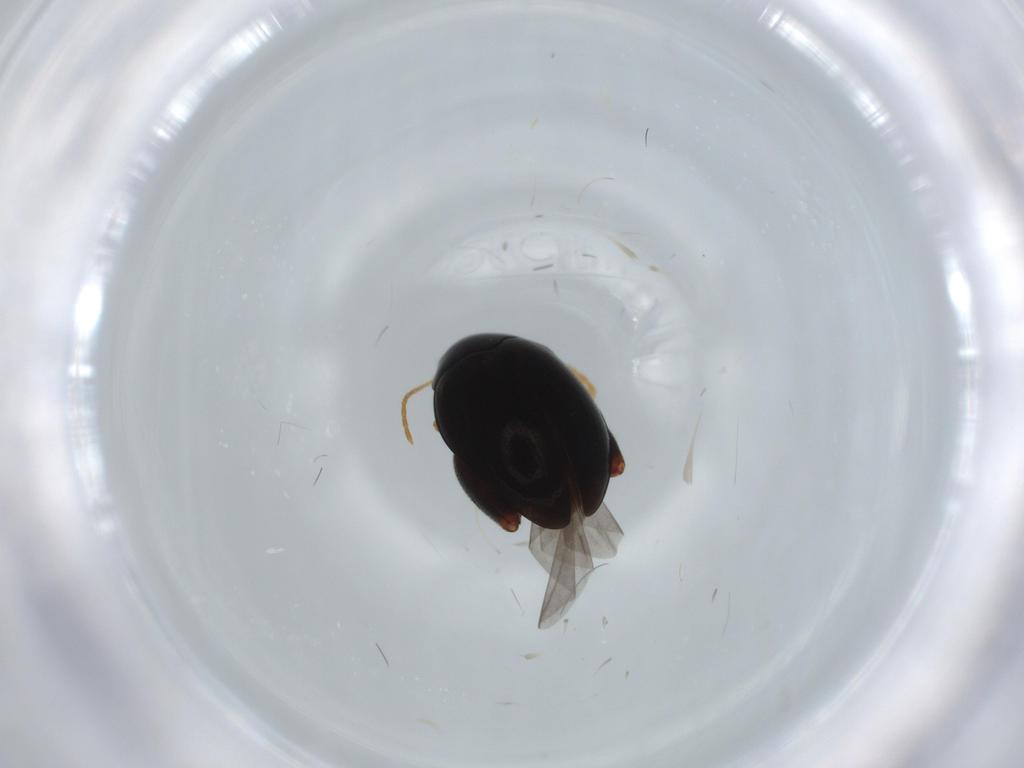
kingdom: Animalia
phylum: Arthropoda
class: Insecta
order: Coleoptera
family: Chrysomelidae
